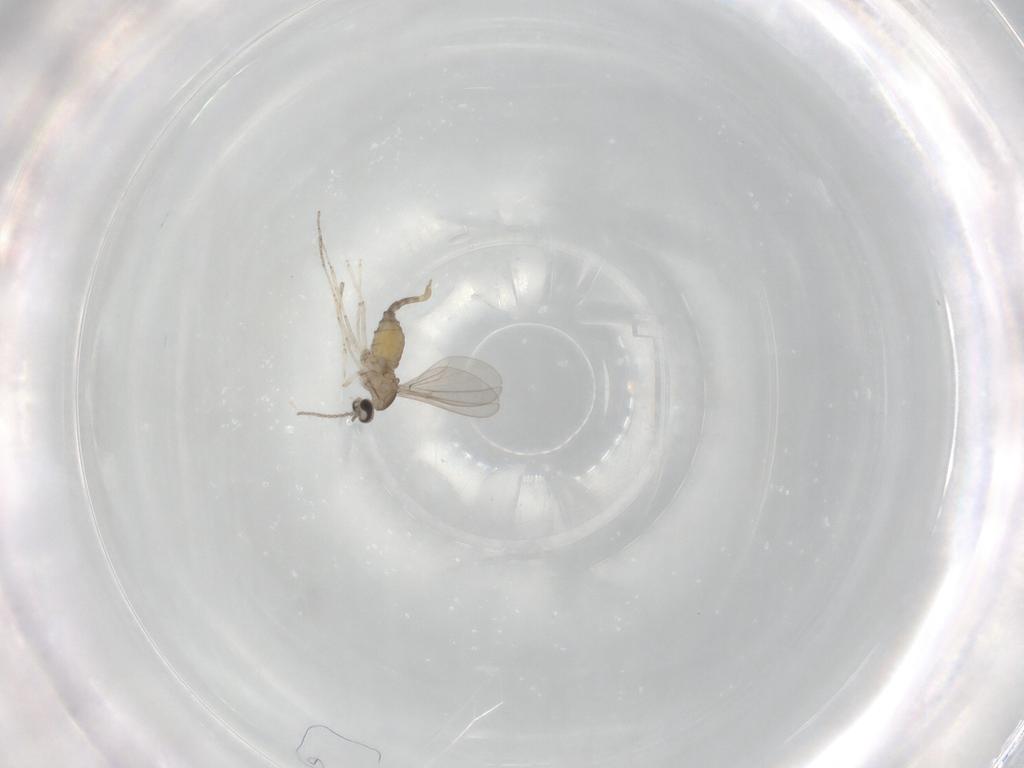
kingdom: Animalia
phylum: Arthropoda
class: Insecta
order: Diptera
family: Cecidomyiidae
